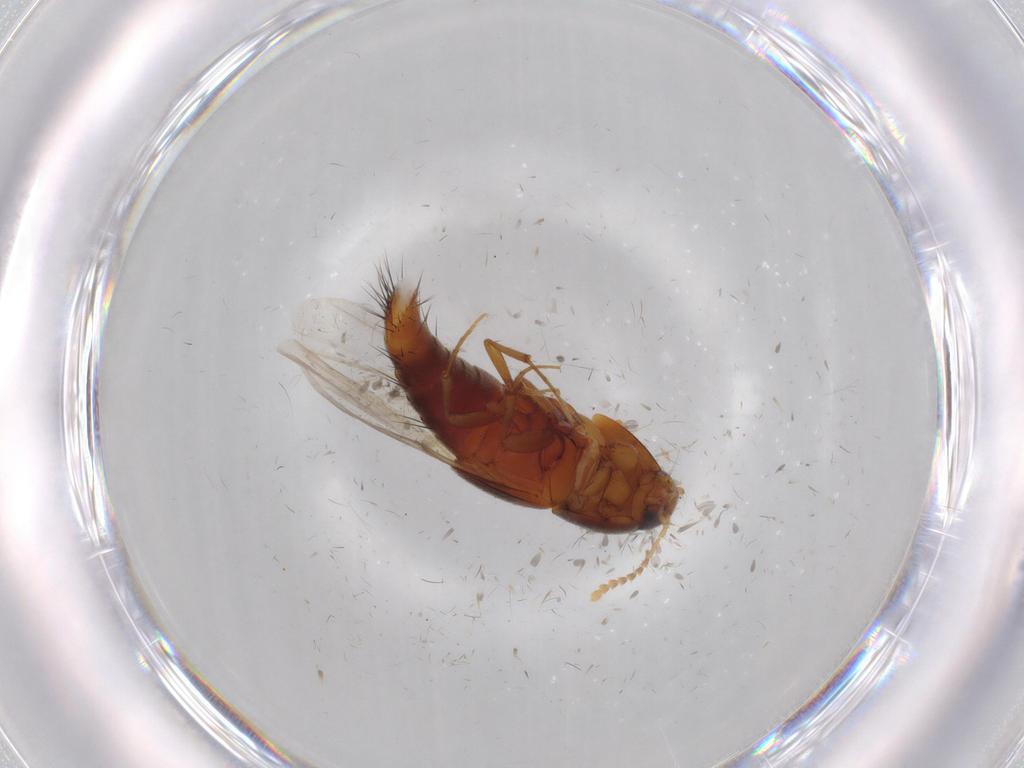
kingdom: Animalia
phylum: Arthropoda
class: Insecta
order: Coleoptera
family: Staphylinidae
